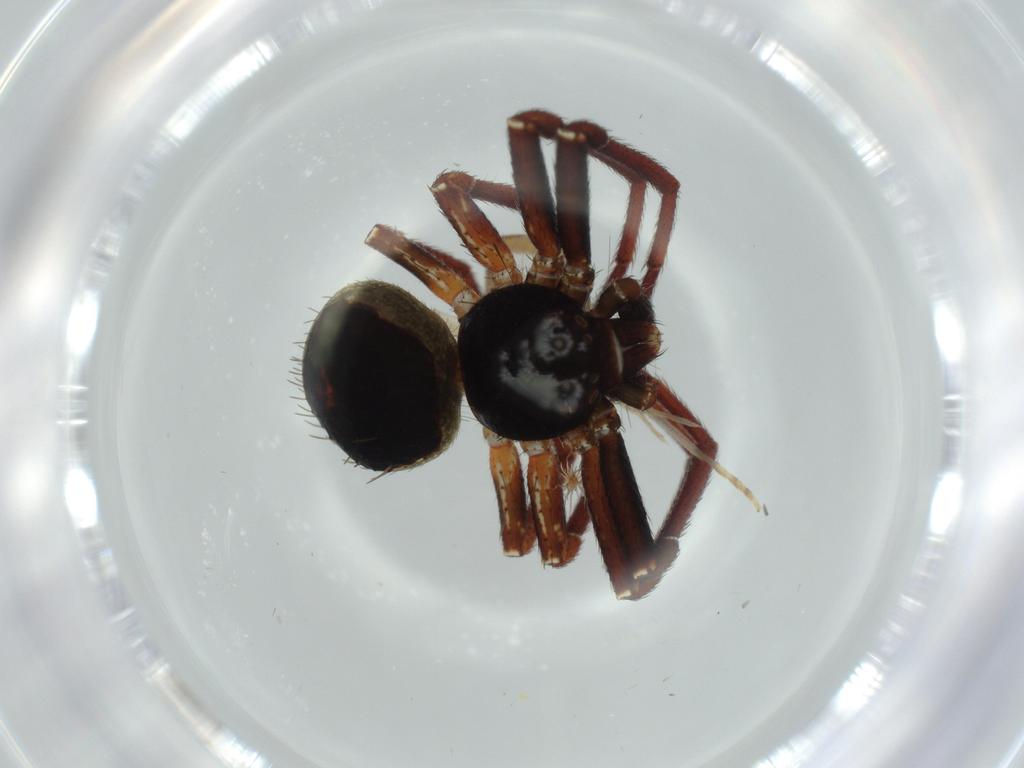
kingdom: Animalia
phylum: Arthropoda
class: Arachnida
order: Araneae
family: Thomisidae
